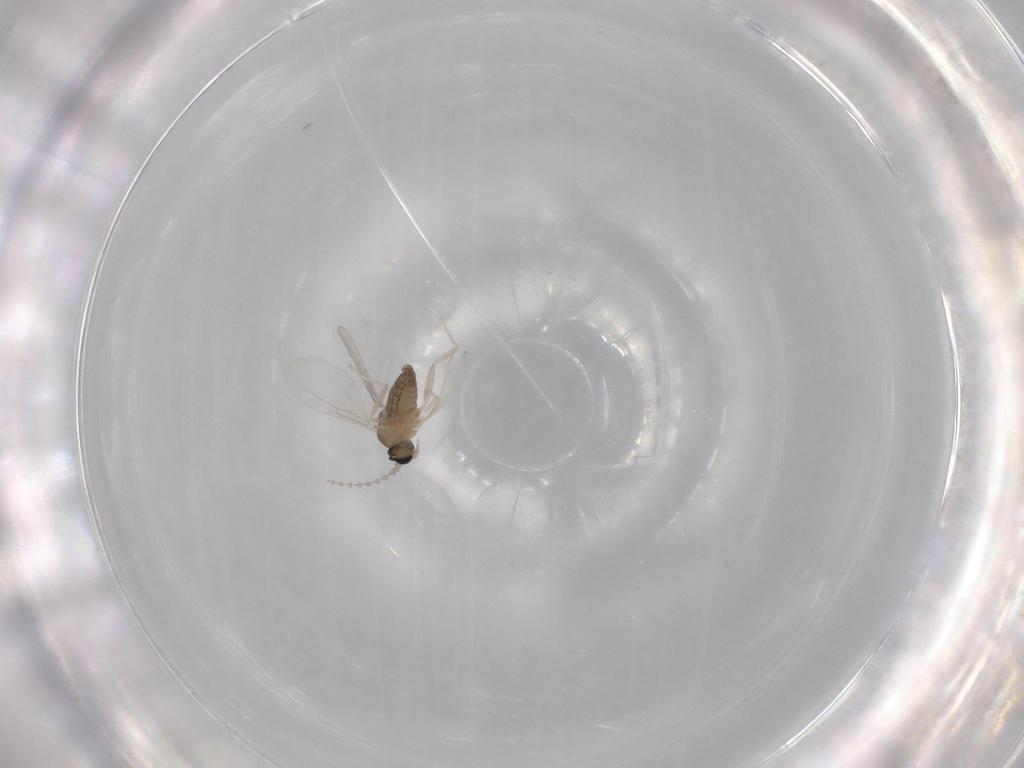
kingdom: Animalia
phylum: Arthropoda
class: Insecta
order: Diptera
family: Cecidomyiidae
